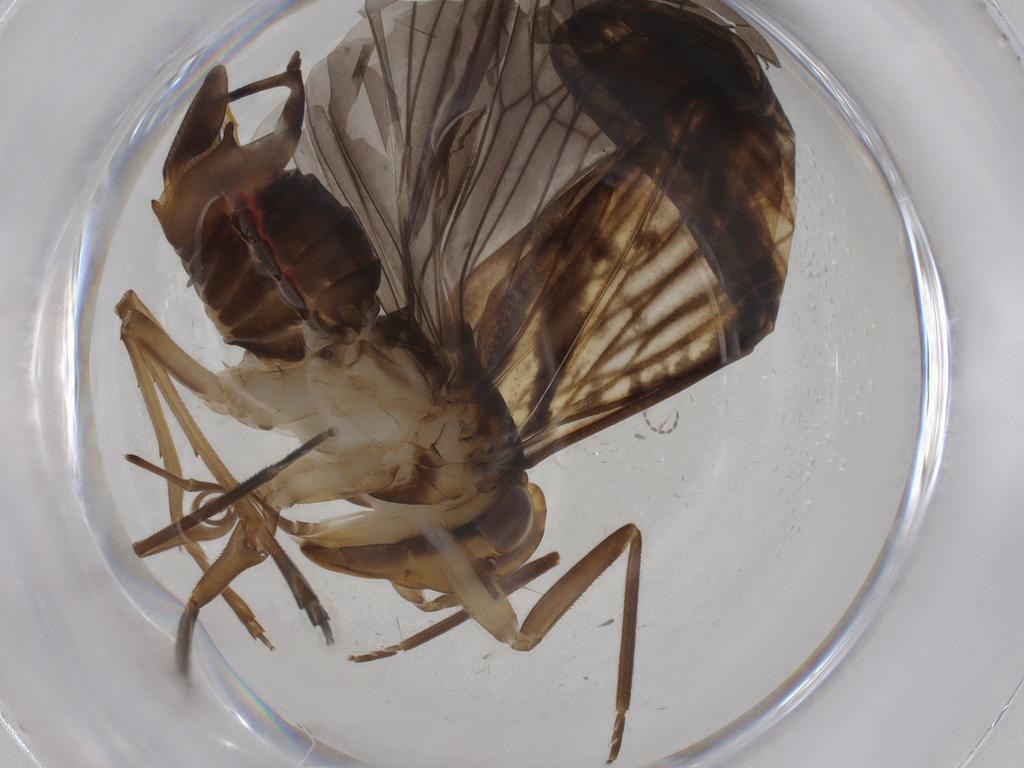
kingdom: Animalia
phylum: Arthropoda
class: Insecta
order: Hemiptera
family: Cixiidae
